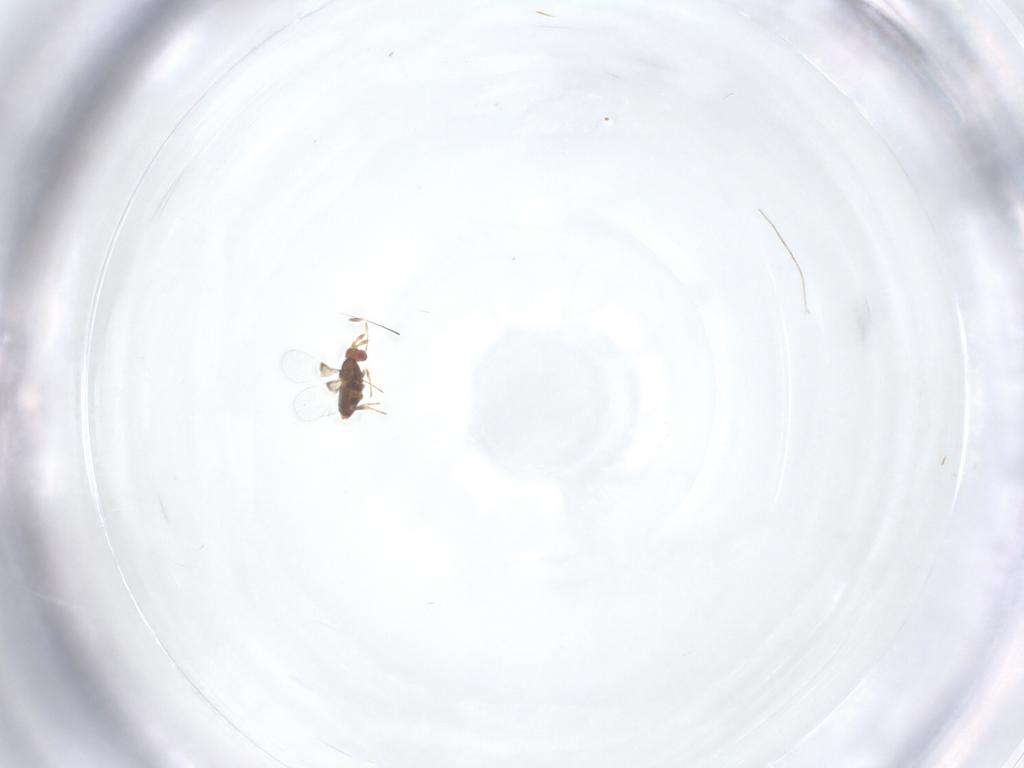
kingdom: Animalia
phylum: Arthropoda
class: Insecta
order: Hymenoptera
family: Trichogrammatidae
